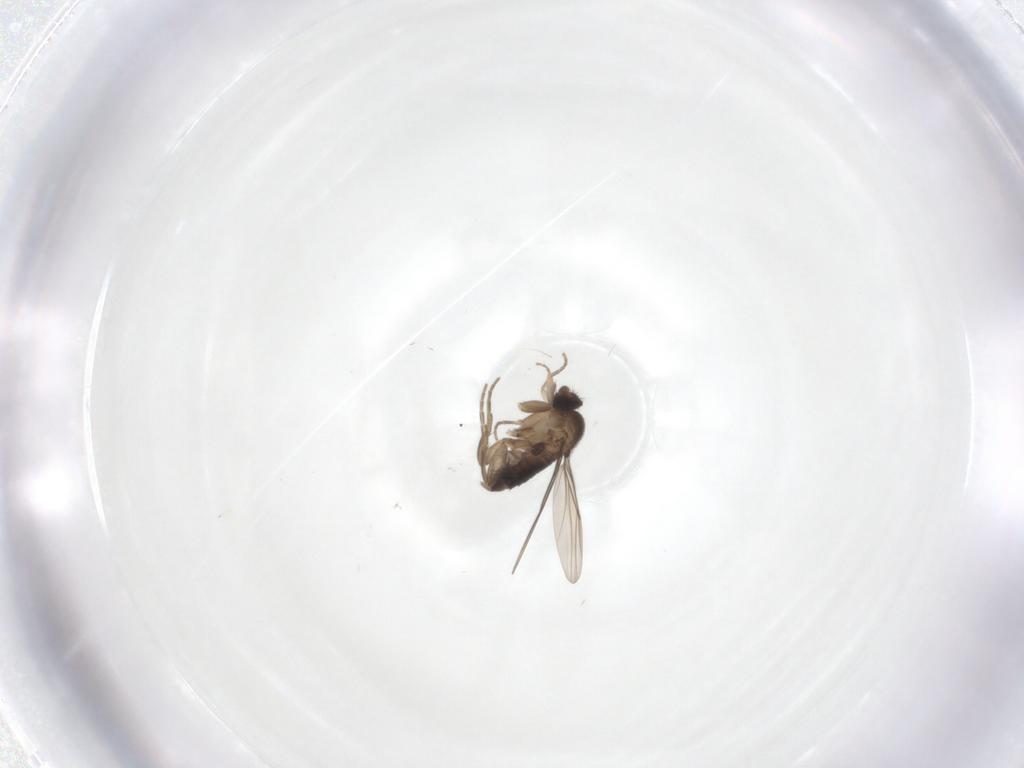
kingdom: Animalia
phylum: Arthropoda
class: Insecta
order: Diptera
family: Phoridae
